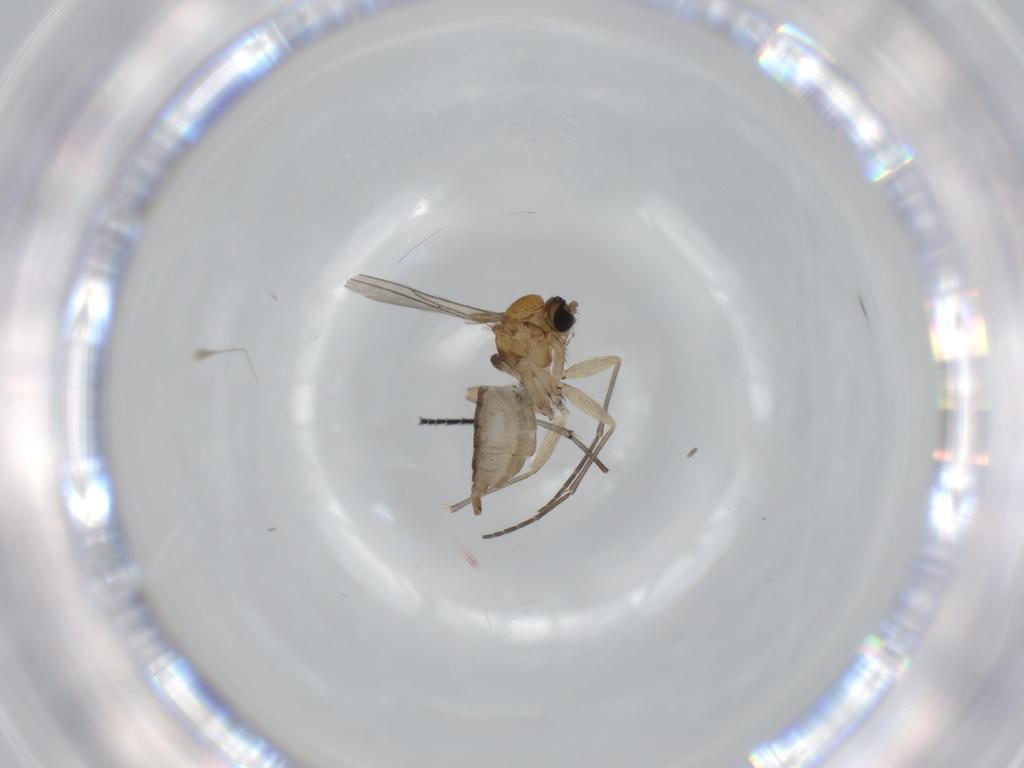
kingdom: Animalia
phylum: Arthropoda
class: Insecta
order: Diptera
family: Sciaridae
